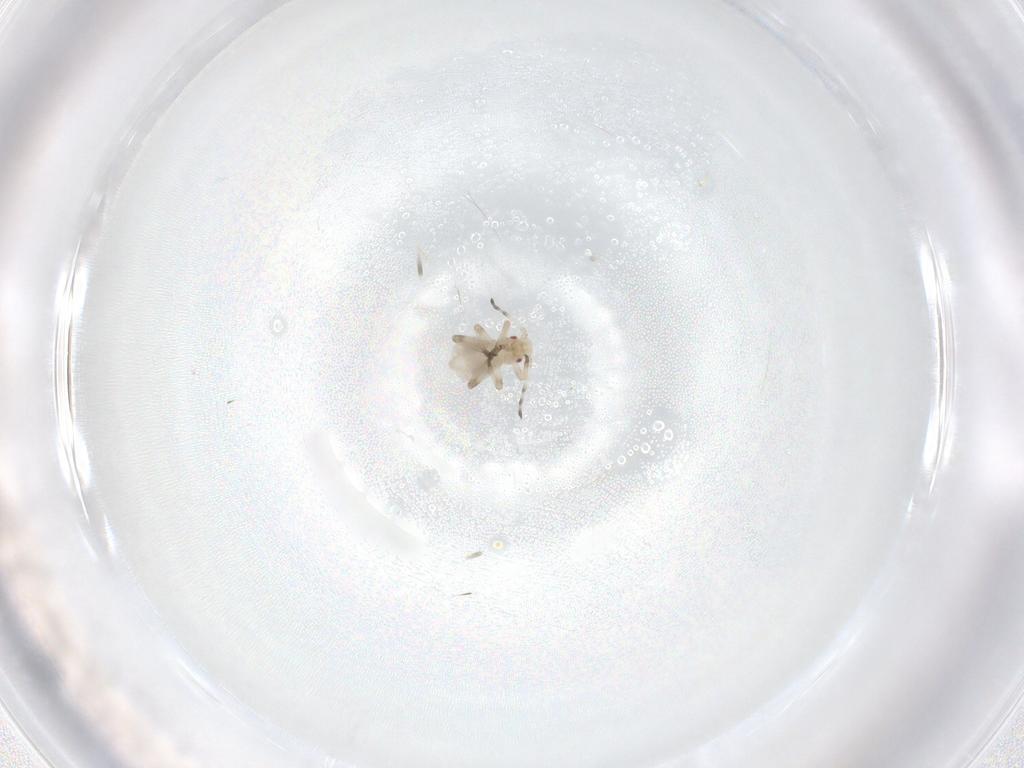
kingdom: Animalia
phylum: Arthropoda
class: Insecta
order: Hemiptera
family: Aphididae
